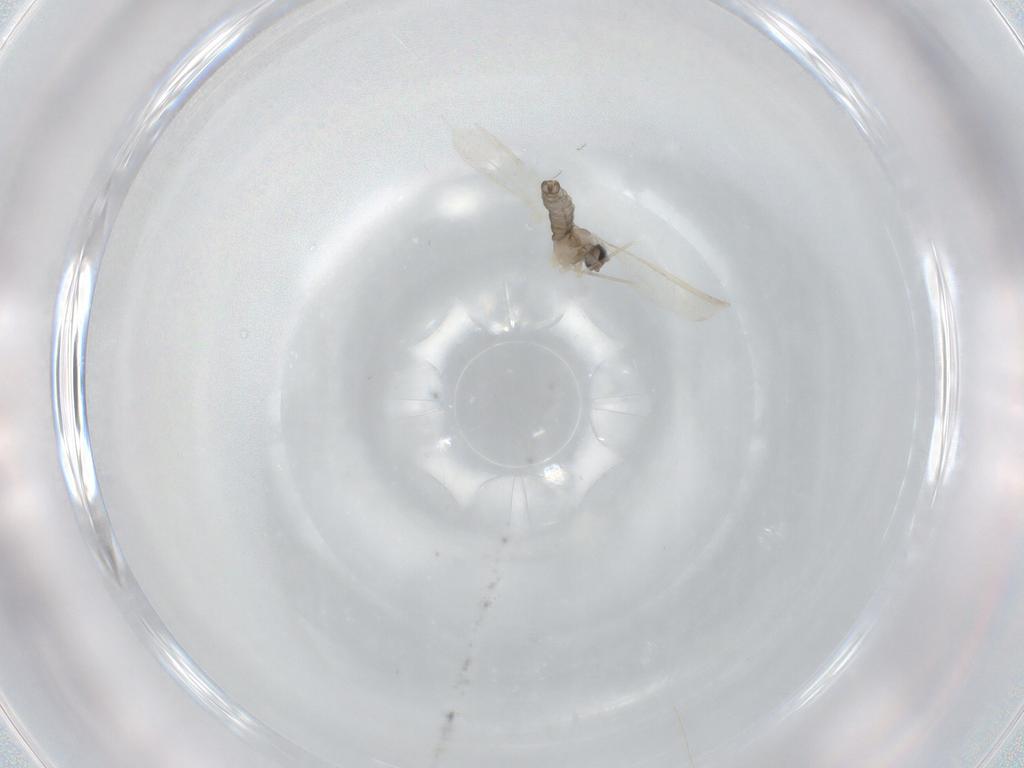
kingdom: Animalia
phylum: Arthropoda
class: Insecta
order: Diptera
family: Cecidomyiidae
